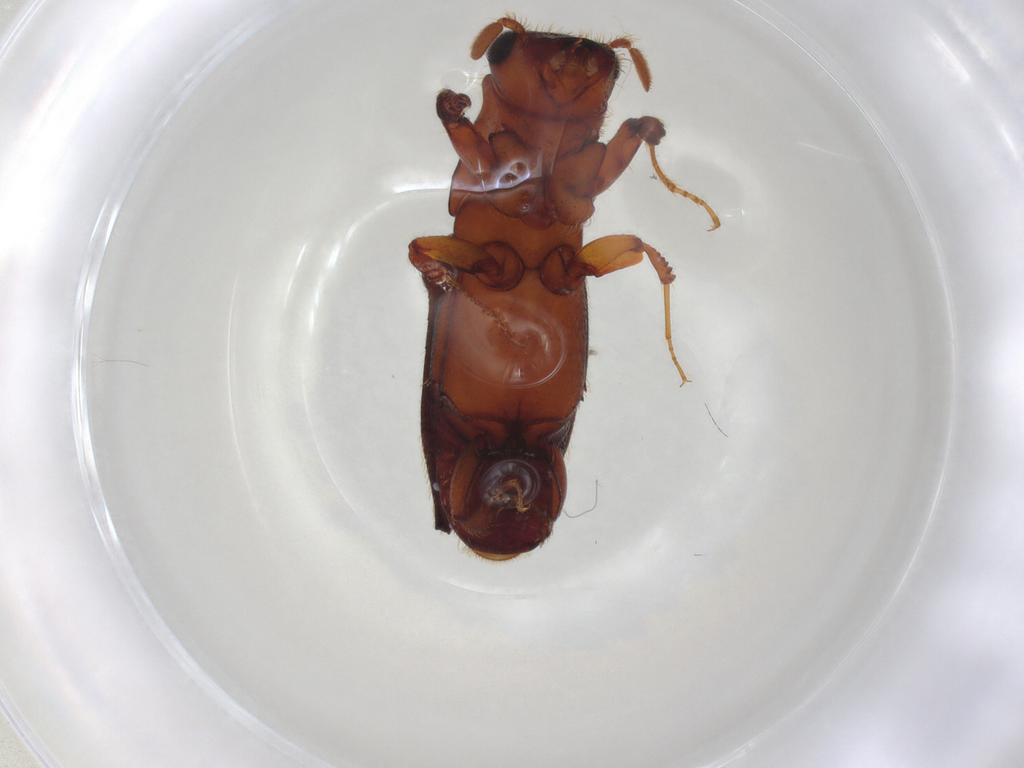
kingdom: Animalia
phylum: Arthropoda
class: Insecta
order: Coleoptera
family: Curculionidae
